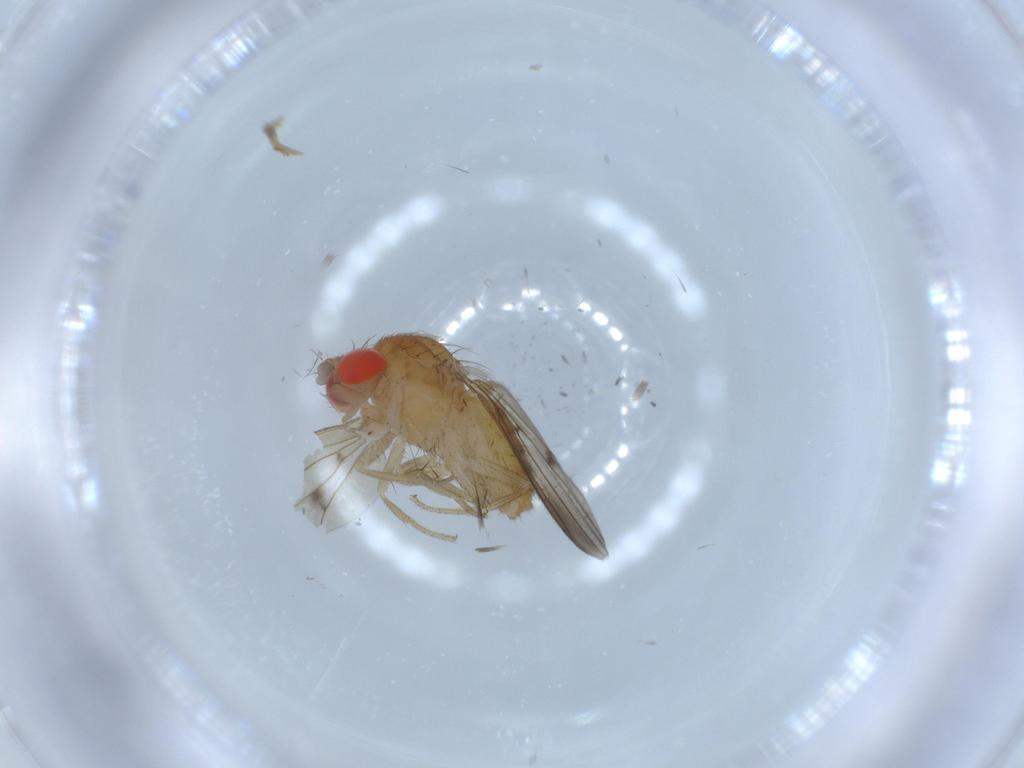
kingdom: Animalia
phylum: Arthropoda
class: Insecta
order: Diptera
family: Drosophilidae
